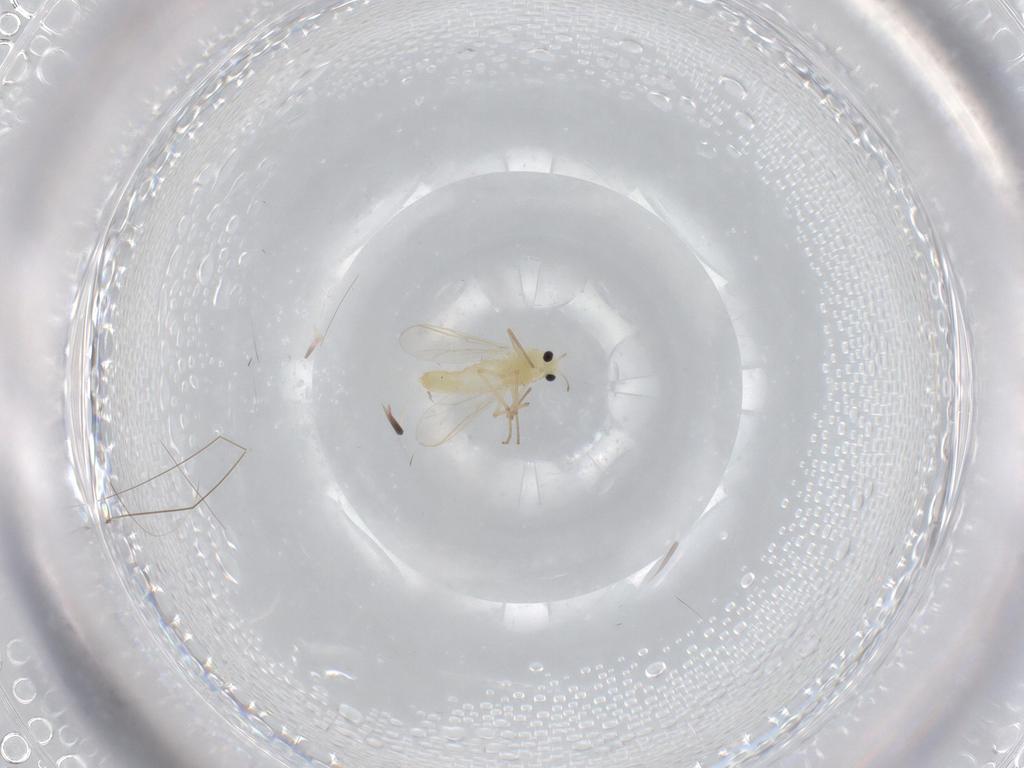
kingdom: Animalia
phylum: Arthropoda
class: Insecta
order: Diptera
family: Chironomidae
